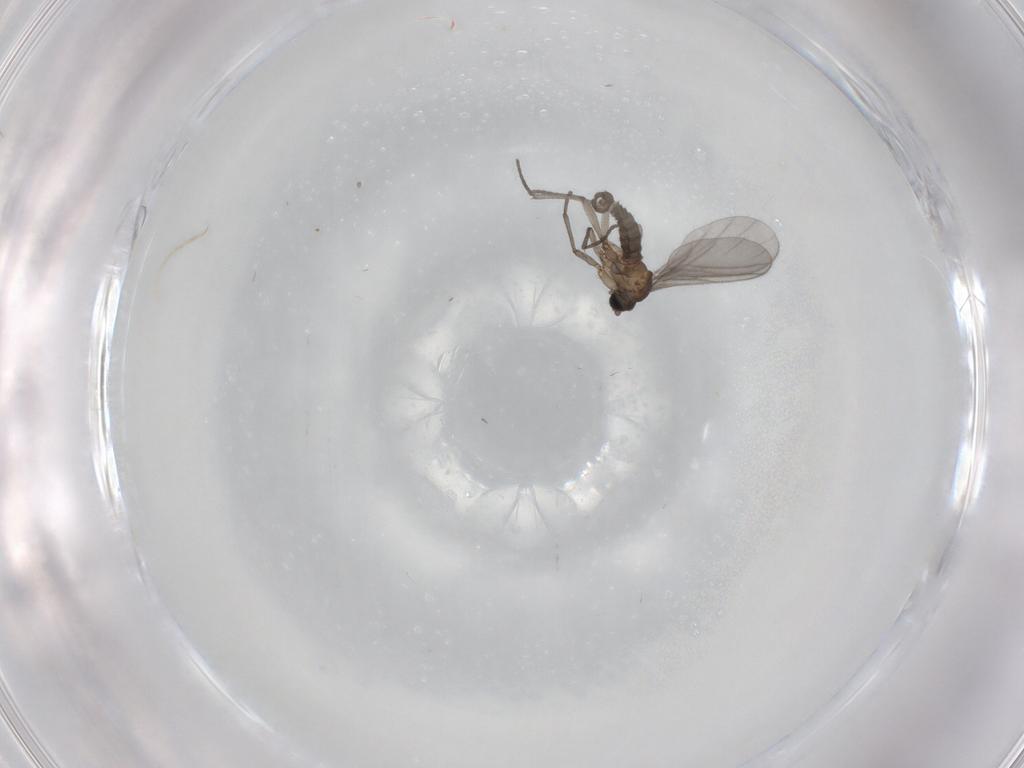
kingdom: Animalia
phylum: Arthropoda
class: Insecta
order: Diptera
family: Sciaridae
